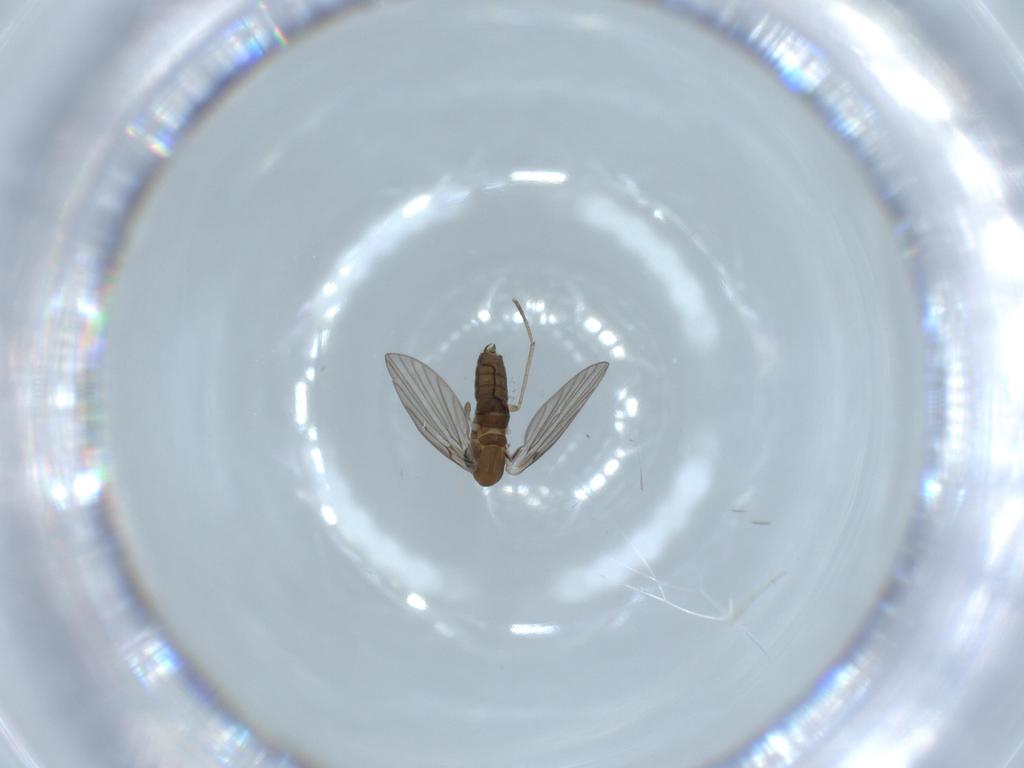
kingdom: Animalia
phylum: Arthropoda
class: Insecta
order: Diptera
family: Psychodidae
